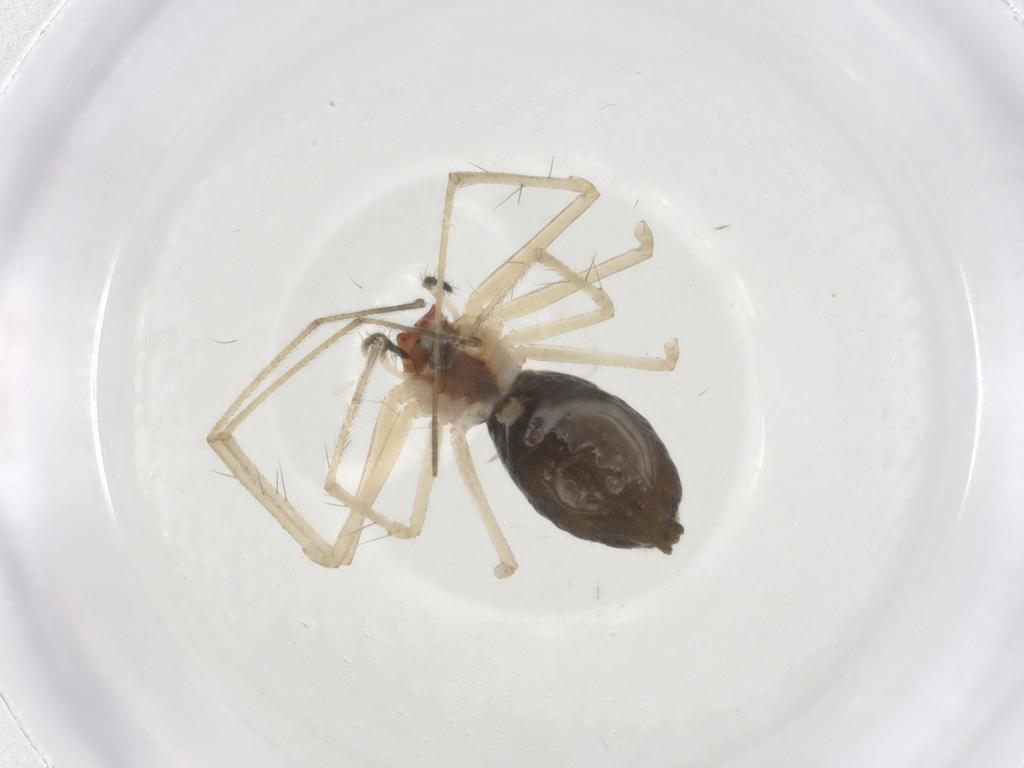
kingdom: Animalia
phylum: Arthropoda
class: Arachnida
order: Araneae
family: Linyphiidae
